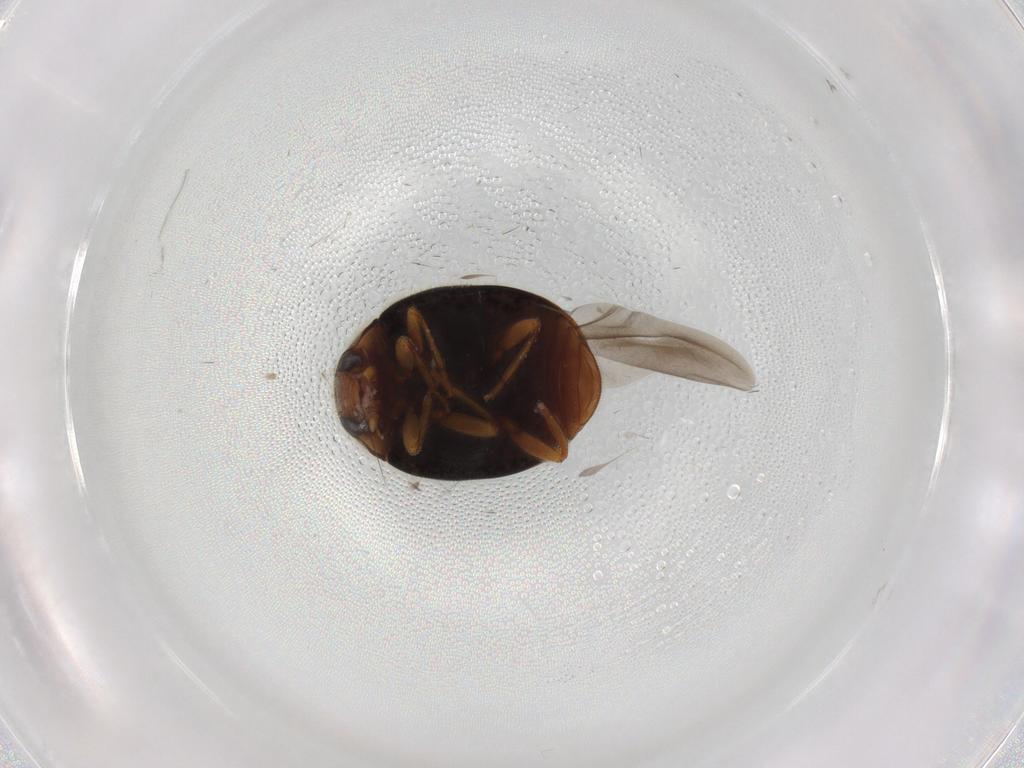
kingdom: Animalia
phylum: Arthropoda
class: Insecta
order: Coleoptera
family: Coccinellidae
